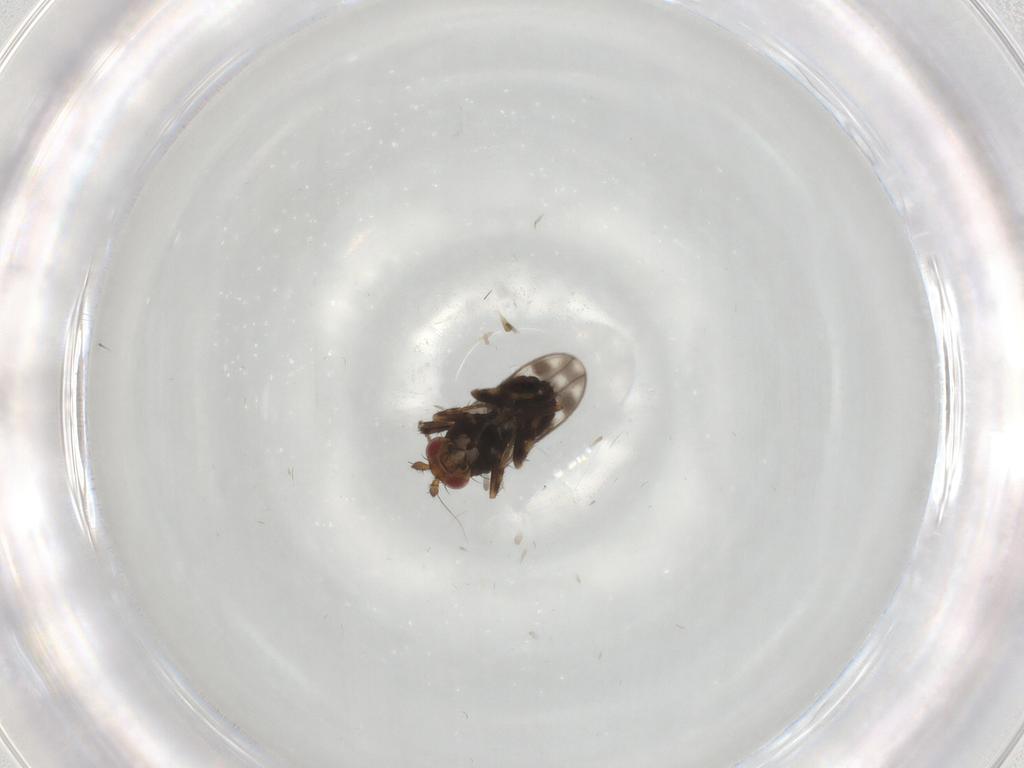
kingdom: Animalia
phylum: Arthropoda
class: Insecta
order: Diptera
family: Sphaeroceridae
